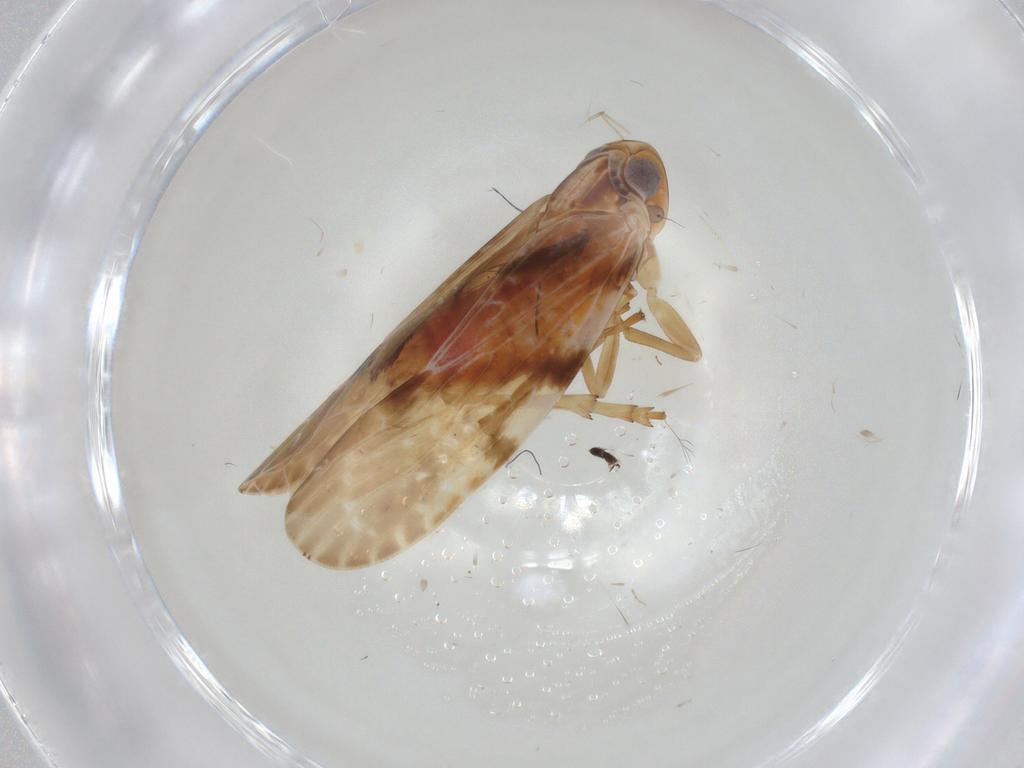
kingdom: Animalia
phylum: Arthropoda
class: Insecta
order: Hemiptera
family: Achilidae
